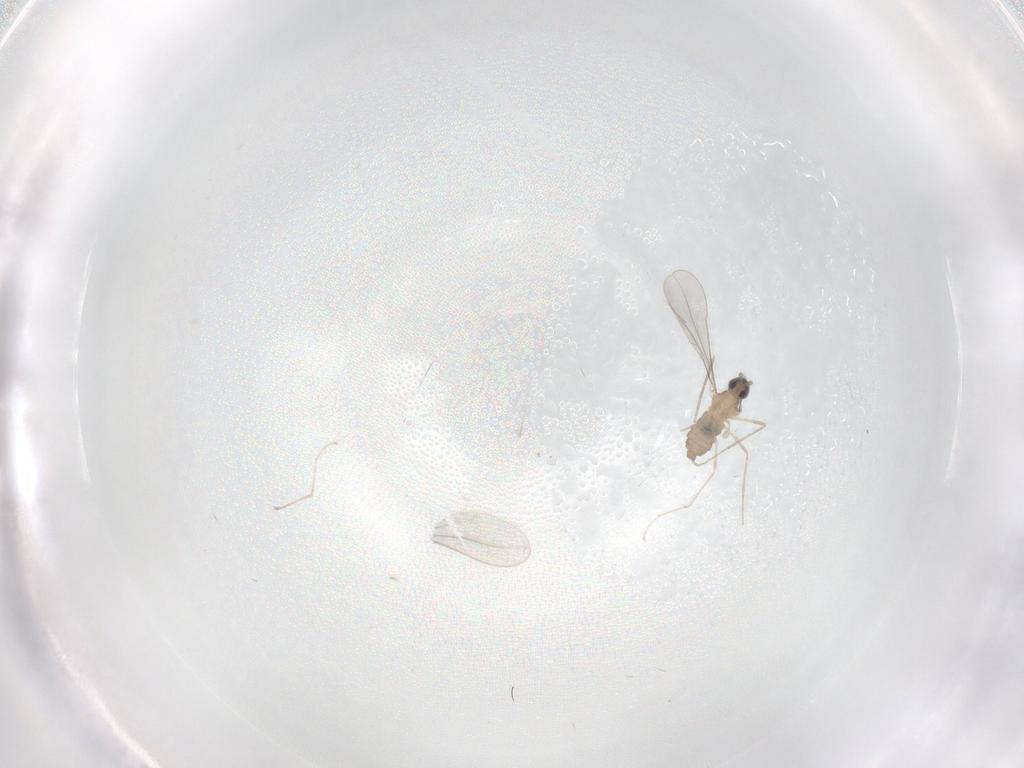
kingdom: Animalia
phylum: Arthropoda
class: Insecta
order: Diptera
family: Cecidomyiidae
